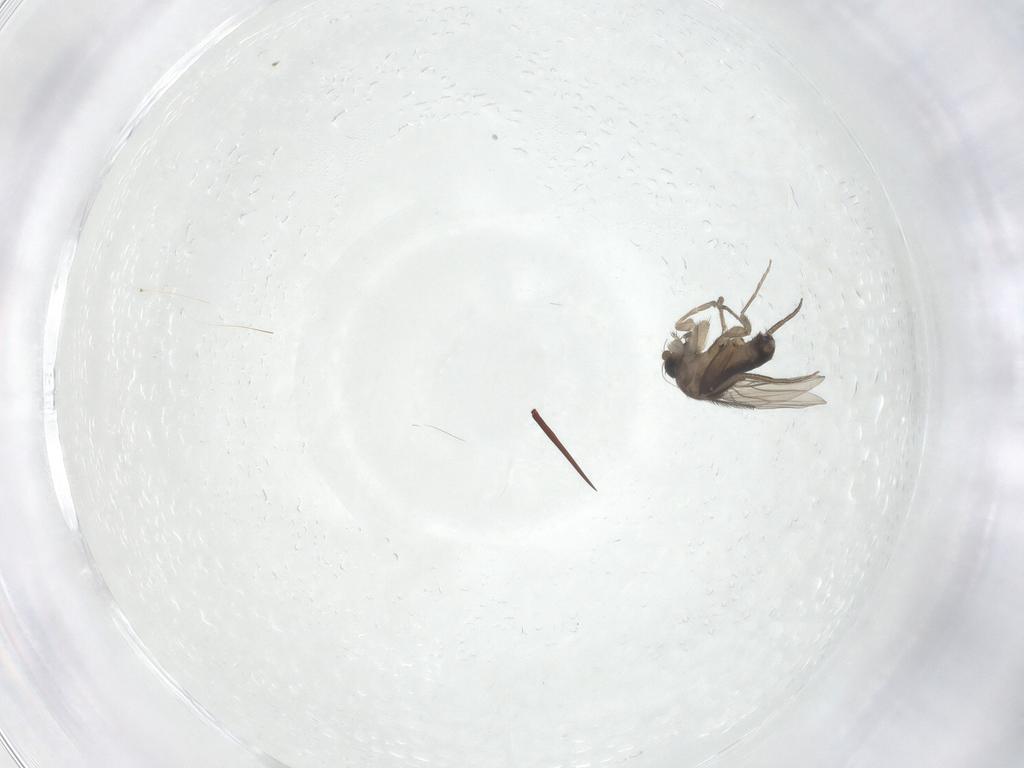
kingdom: Animalia
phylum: Arthropoda
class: Insecta
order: Diptera
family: Phoridae
